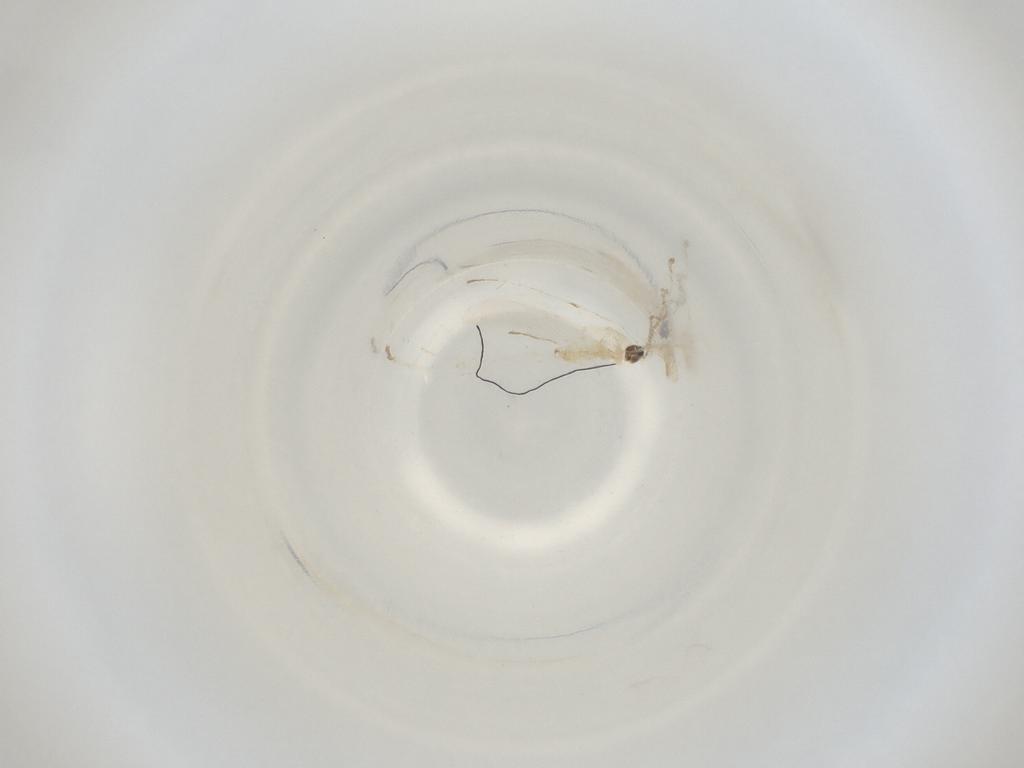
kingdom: Animalia
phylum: Arthropoda
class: Insecta
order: Diptera
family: Cecidomyiidae
